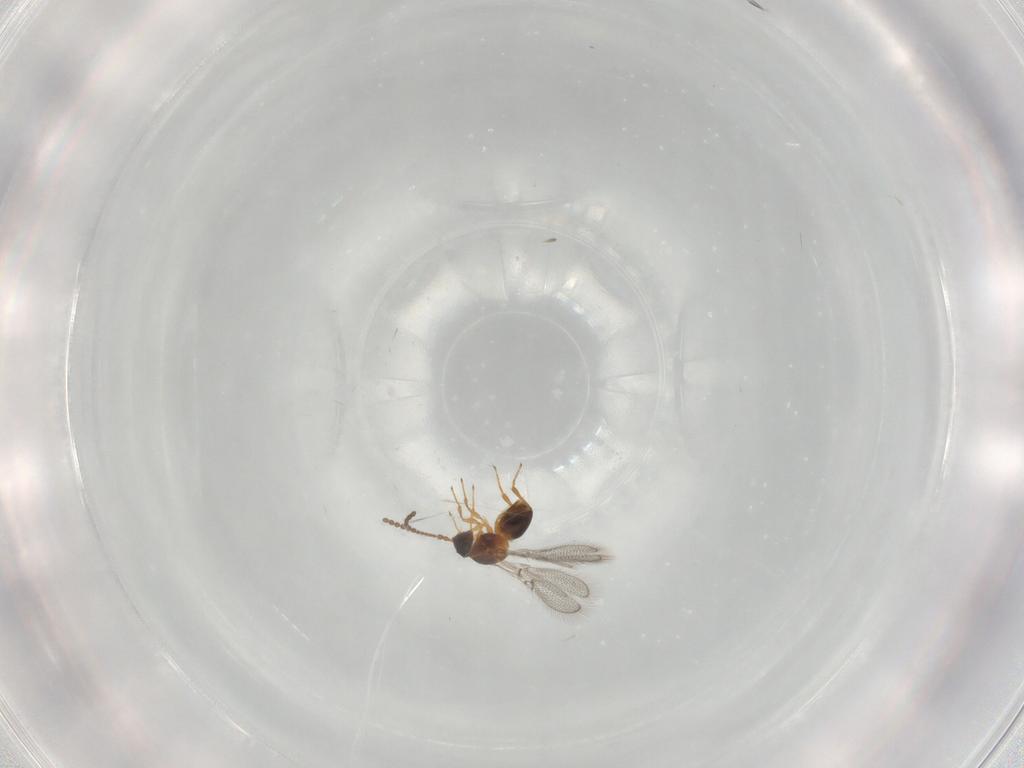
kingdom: Animalia
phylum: Arthropoda
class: Insecta
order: Hymenoptera
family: Figitidae
